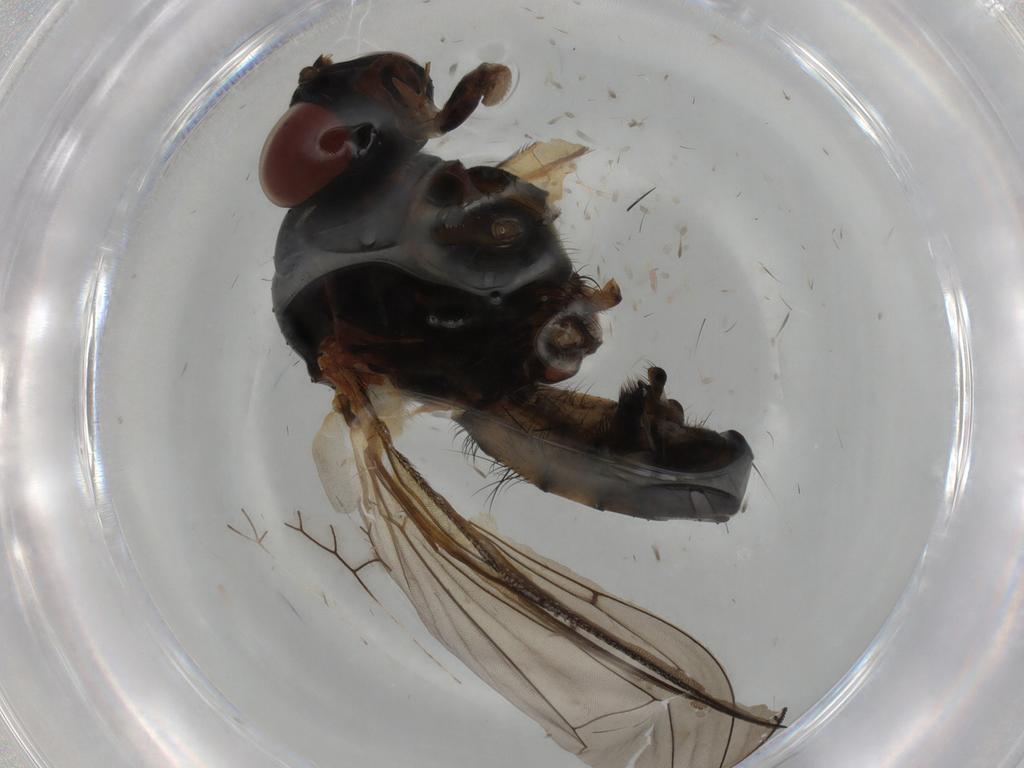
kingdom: Animalia
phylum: Arthropoda
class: Insecta
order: Diptera
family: Anthomyiidae
